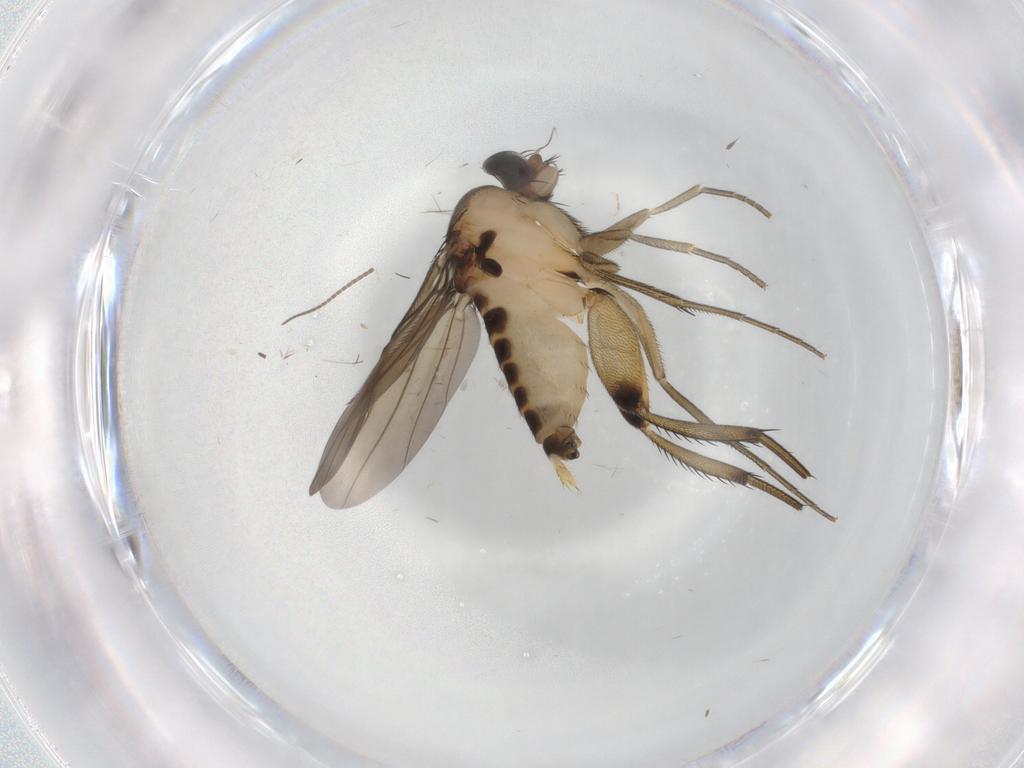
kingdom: Animalia
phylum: Arthropoda
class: Insecta
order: Diptera
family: Phoridae
